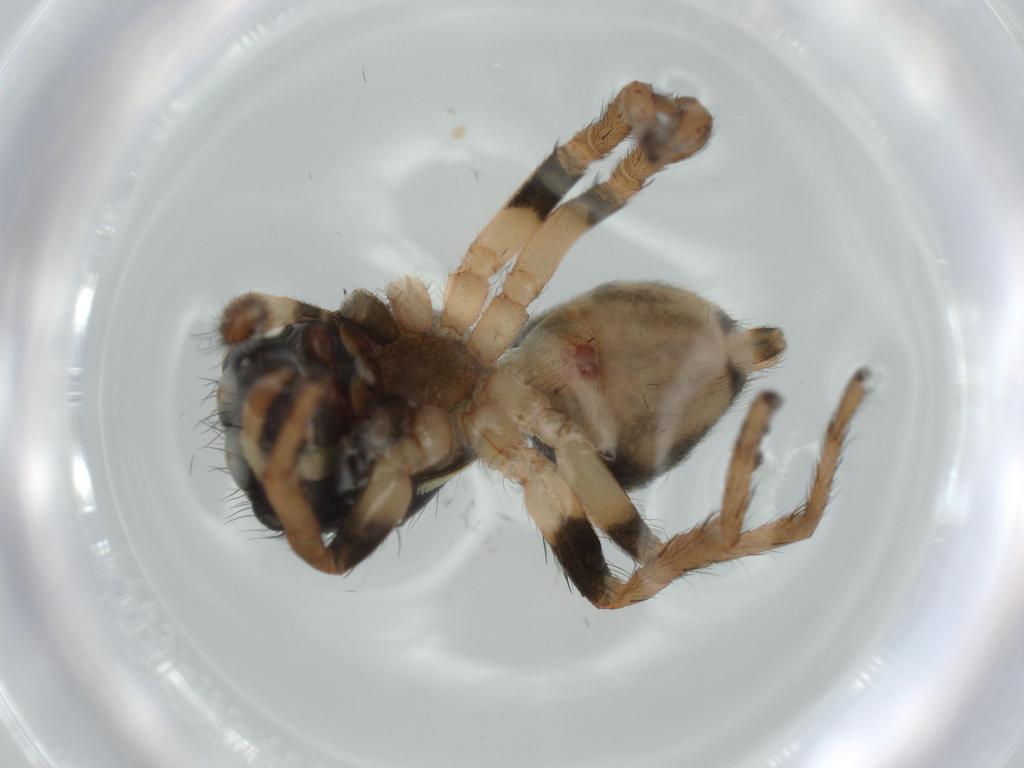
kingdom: Animalia
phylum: Arthropoda
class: Arachnida
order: Araneae
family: Salticidae
